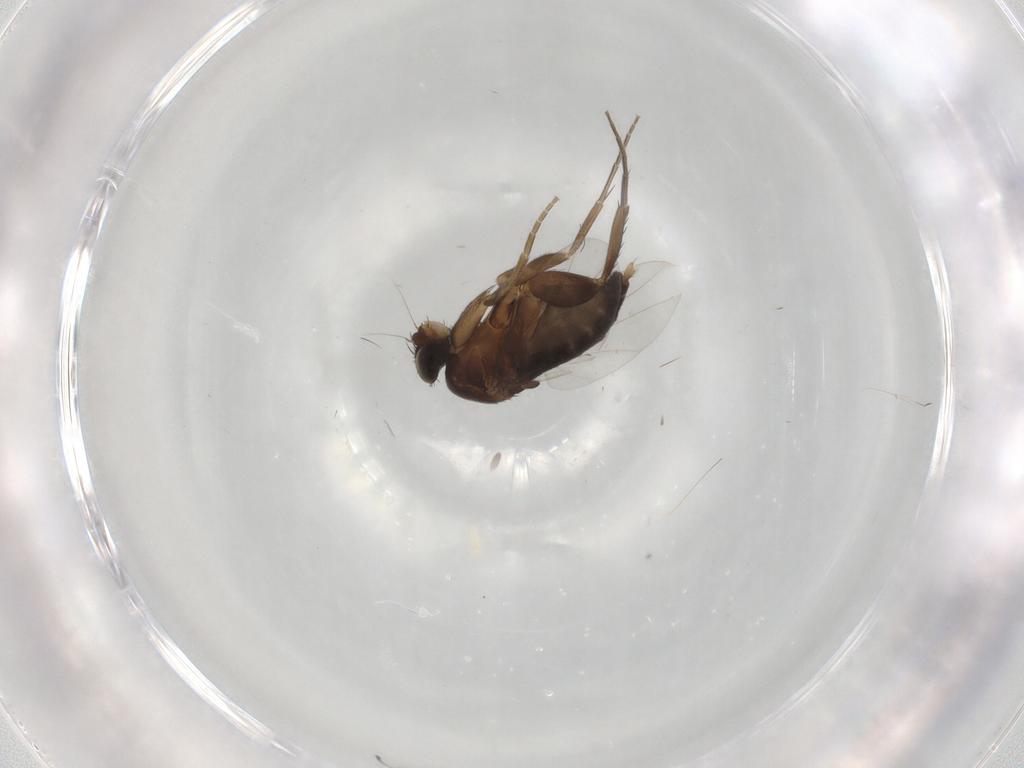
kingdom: Animalia
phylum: Arthropoda
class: Insecta
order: Diptera
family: Phoridae
